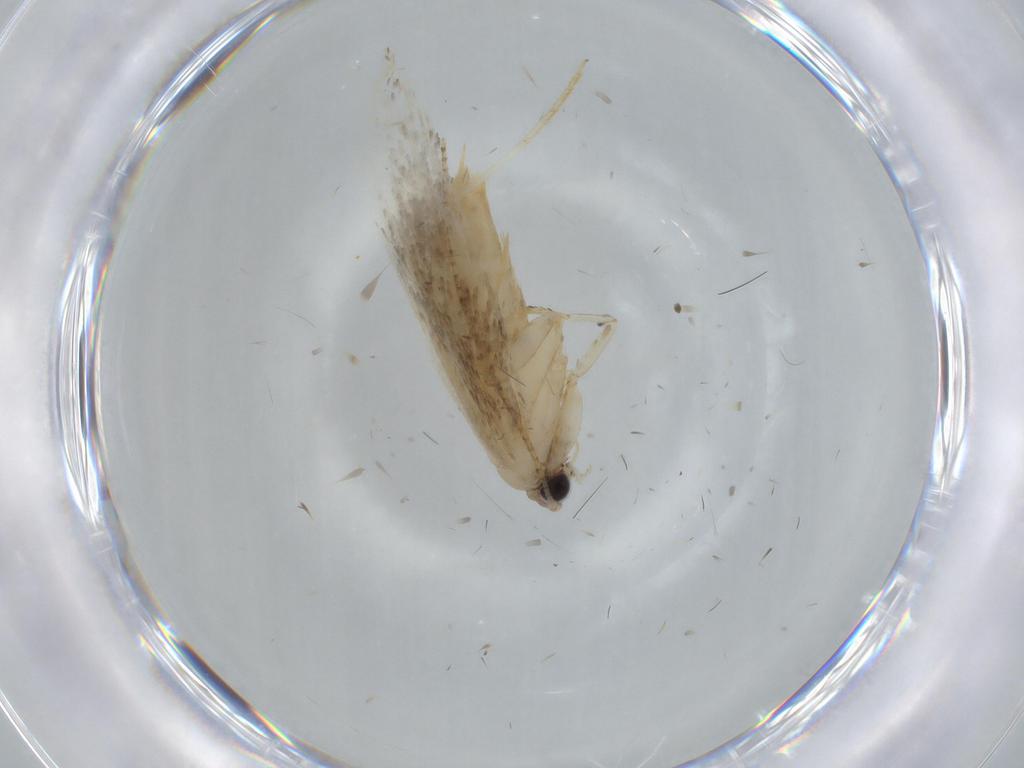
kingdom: Animalia
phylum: Arthropoda
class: Insecta
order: Lepidoptera
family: Tineidae
